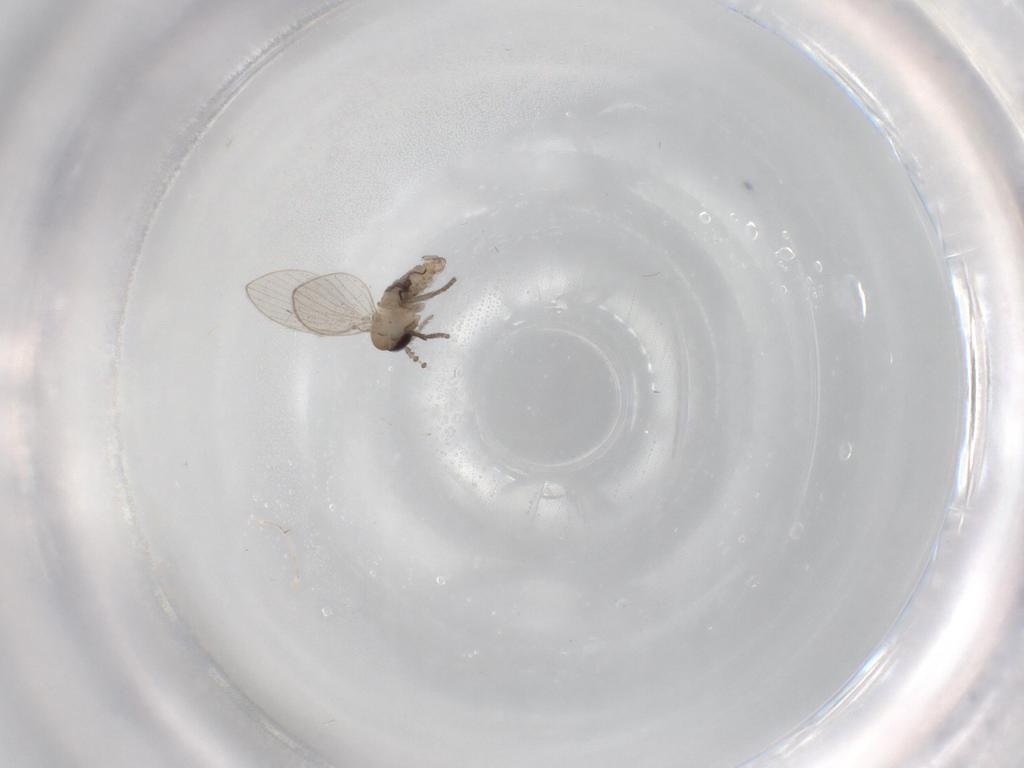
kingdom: Animalia
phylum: Arthropoda
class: Insecta
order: Diptera
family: Psychodidae
